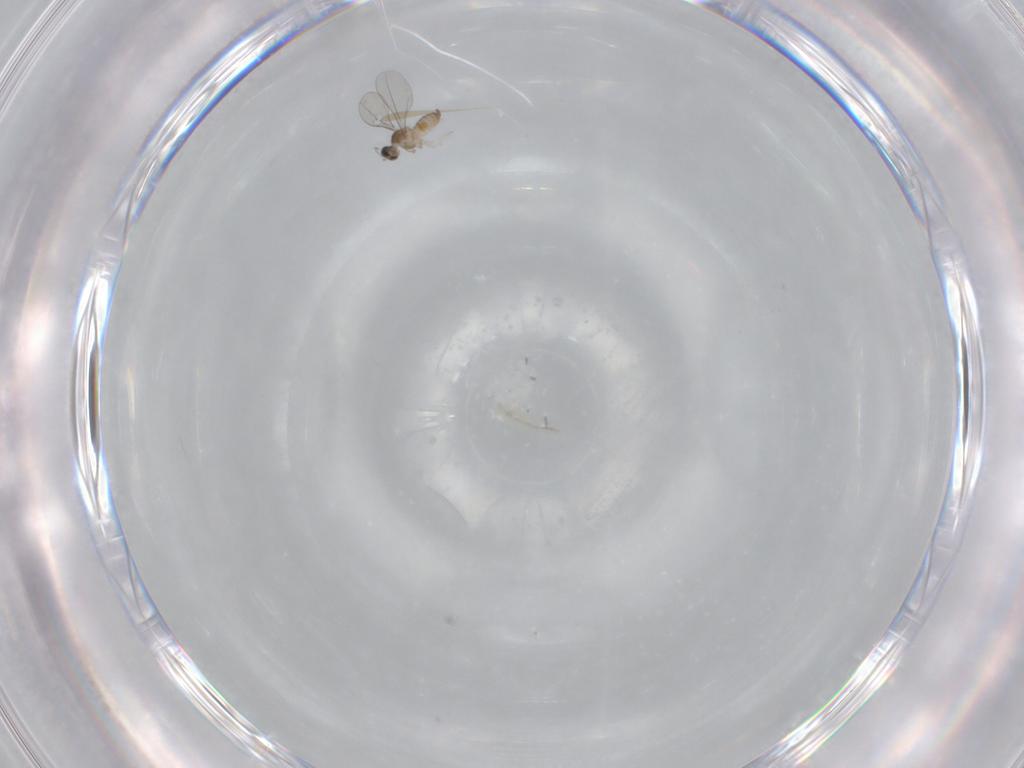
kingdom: Animalia
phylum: Arthropoda
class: Insecta
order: Diptera
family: Cecidomyiidae
